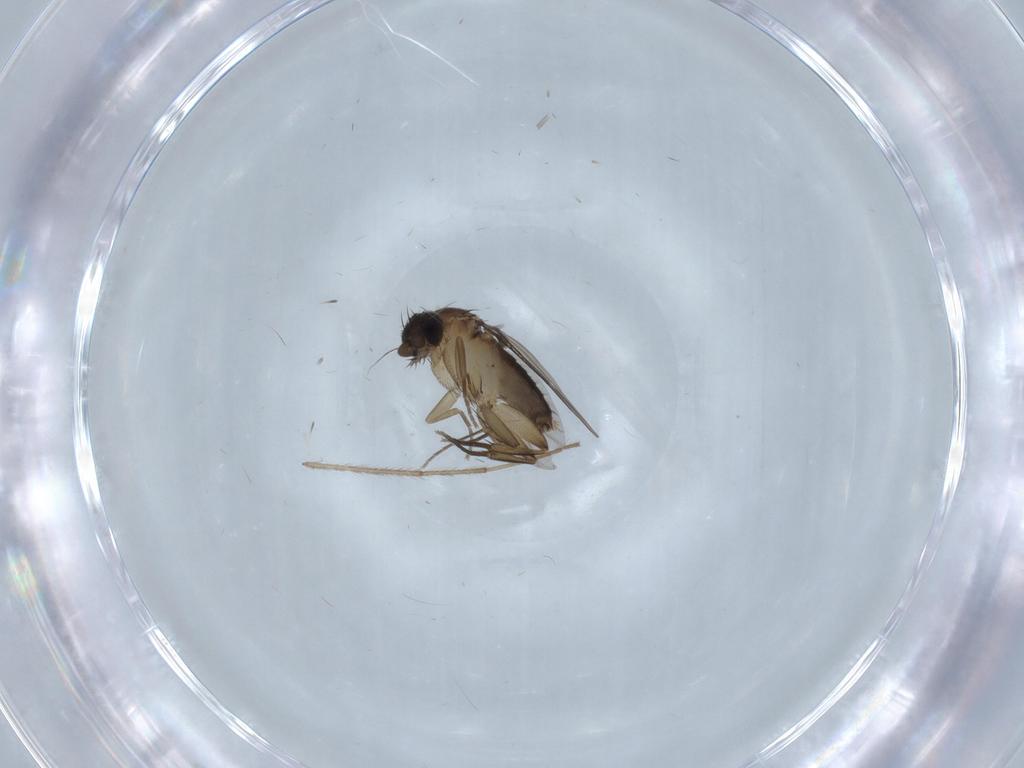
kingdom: Animalia
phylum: Arthropoda
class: Insecta
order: Diptera
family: Phoridae
